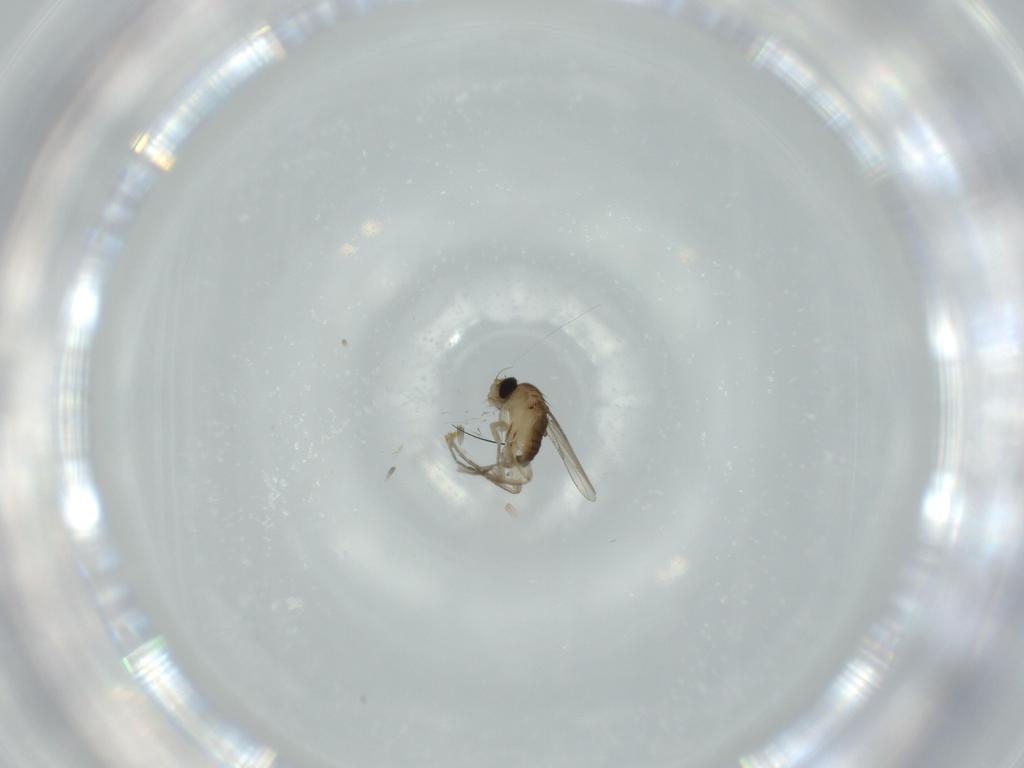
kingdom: Animalia
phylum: Arthropoda
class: Insecta
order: Diptera
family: Phoridae
